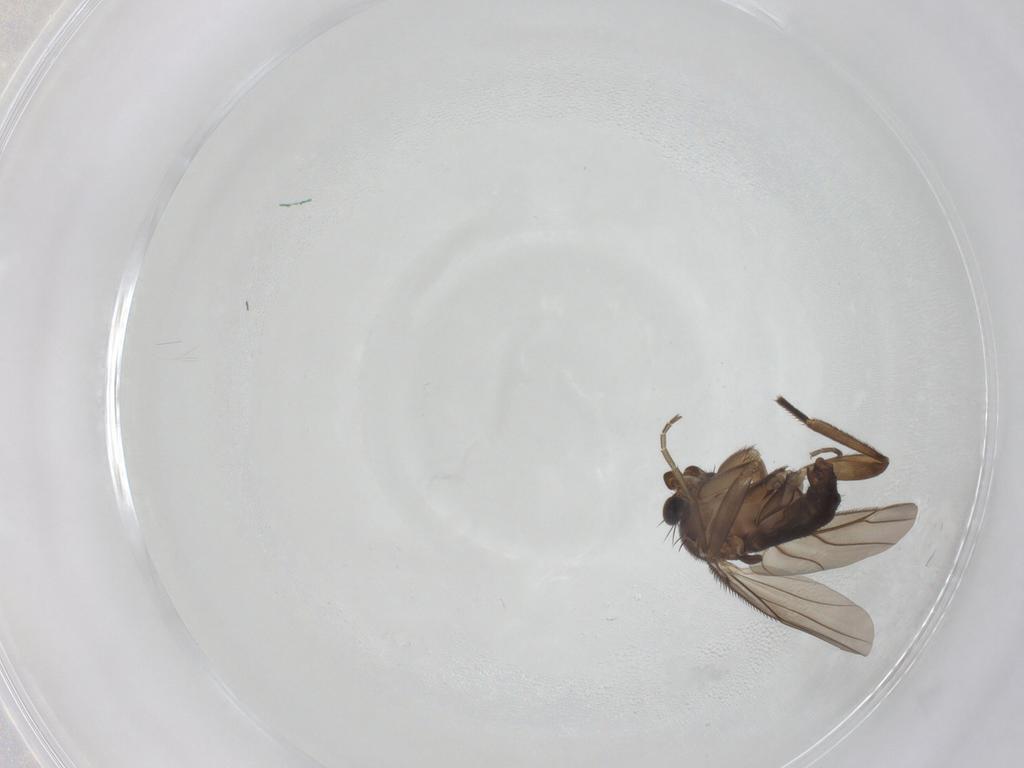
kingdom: Animalia
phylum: Arthropoda
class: Insecta
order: Diptera
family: Phoridae
